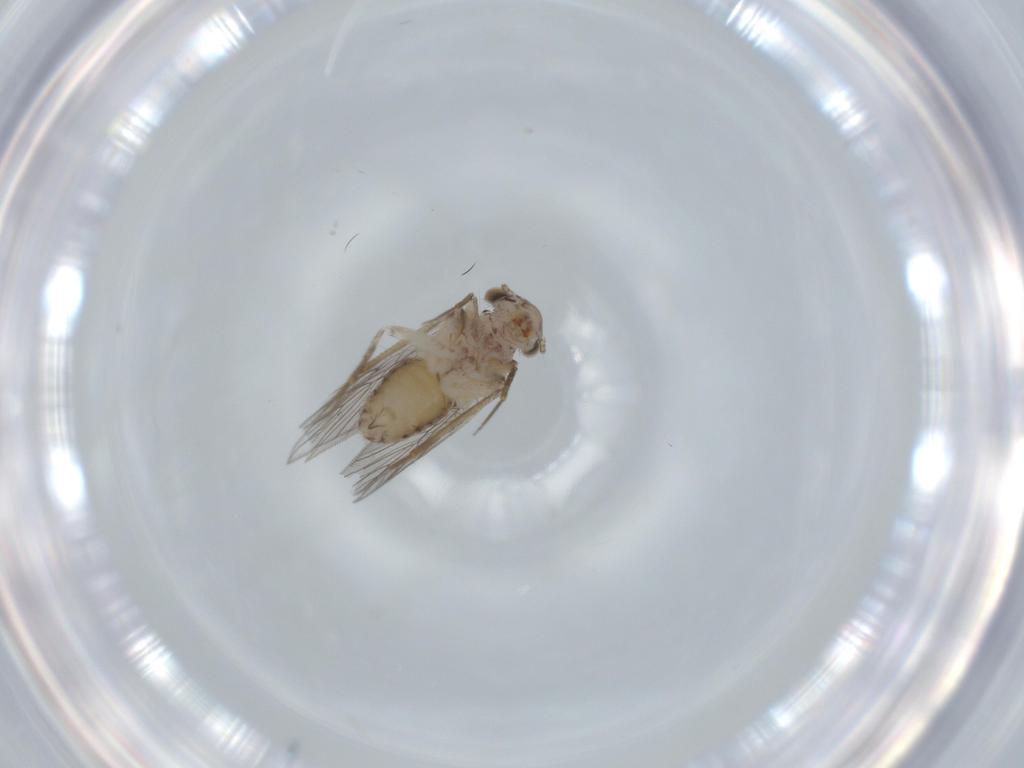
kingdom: Animalia
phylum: Arthropoda
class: Insecta
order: Psocodea
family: Lepidopsocidae
